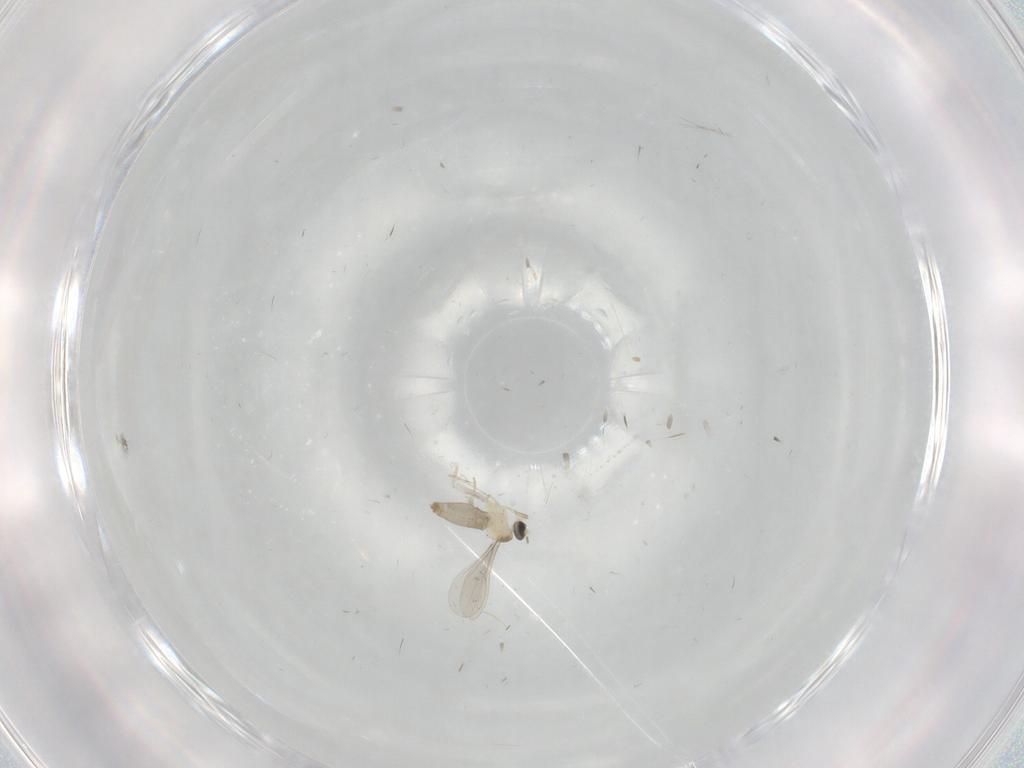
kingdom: Animalia
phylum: Arthropoda
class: Insecta
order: Diptera
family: Cecidomyiidae
